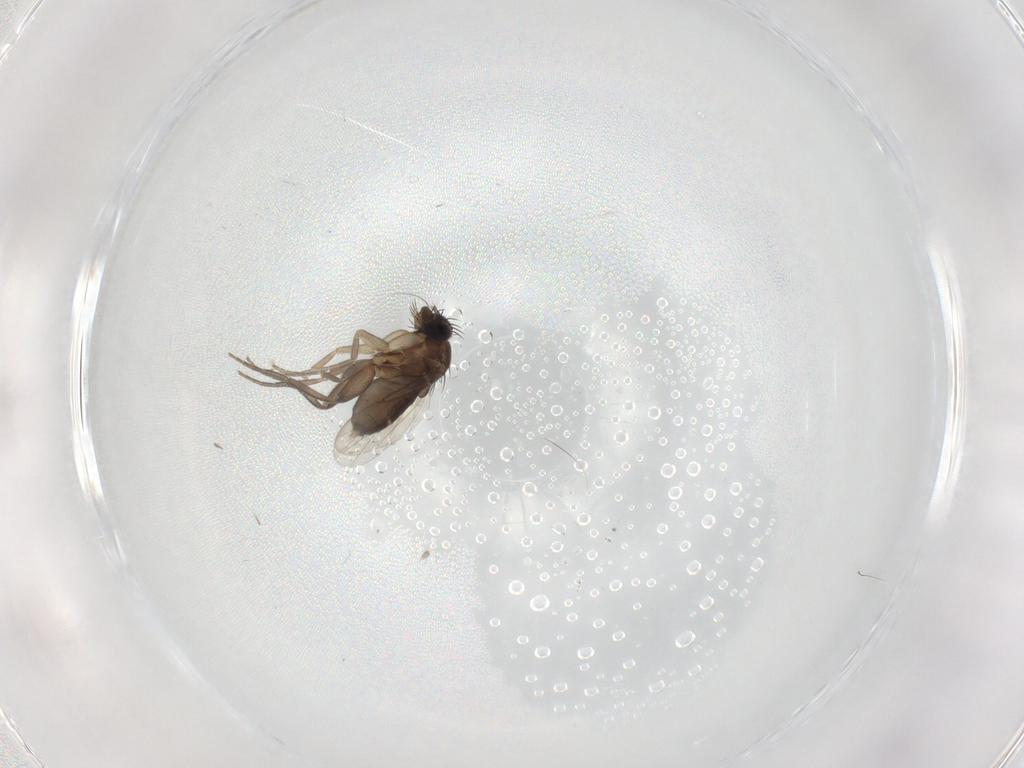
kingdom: Animalia
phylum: Arthropoda
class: Insecta
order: Diptera
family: Phoridae
